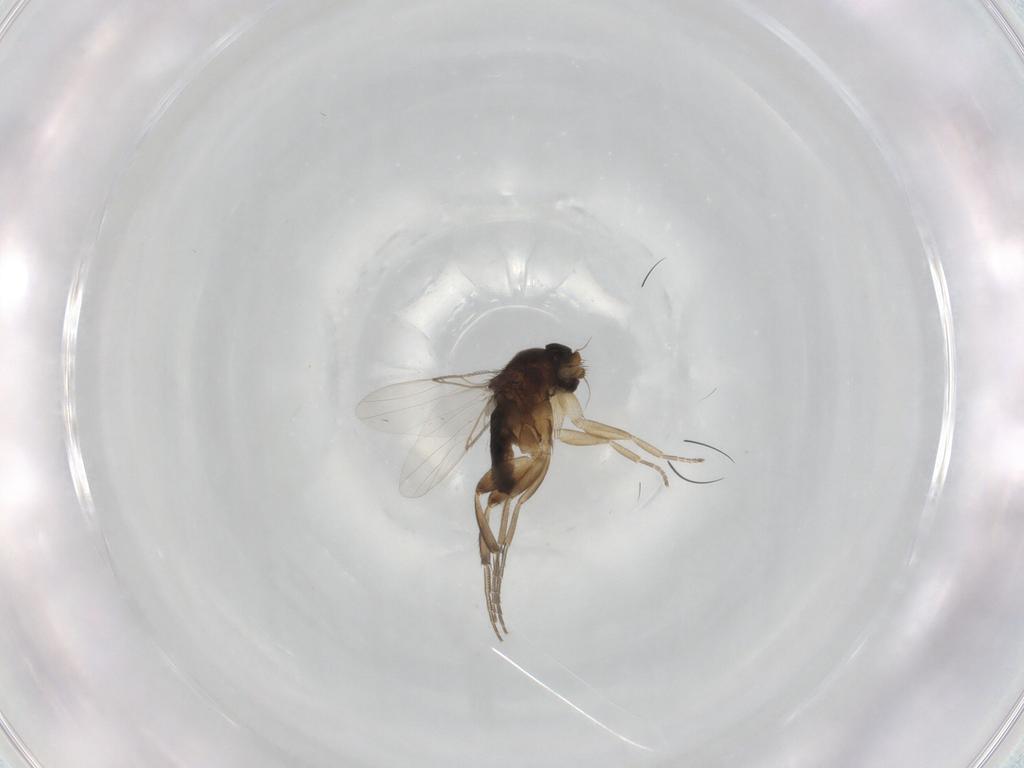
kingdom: Animalia
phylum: Arthropoda
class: Insecta
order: Diptera
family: Phoridae
